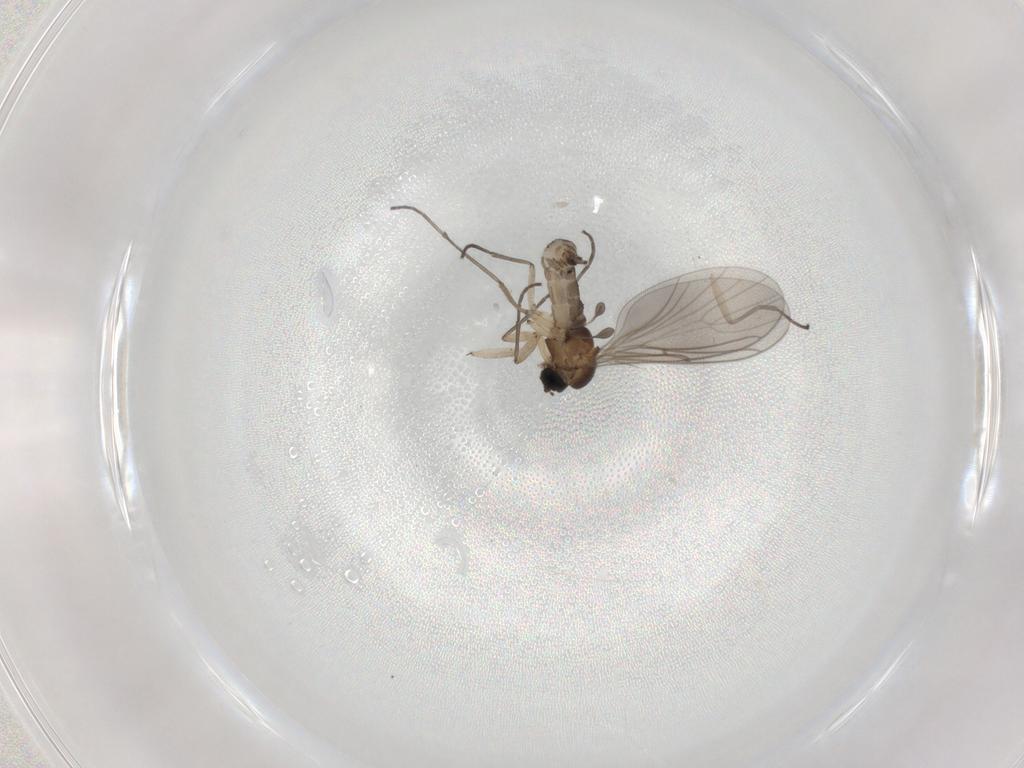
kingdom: Animalia
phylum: Arthropoda
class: Insecta
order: Diptera
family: Sciaridae
